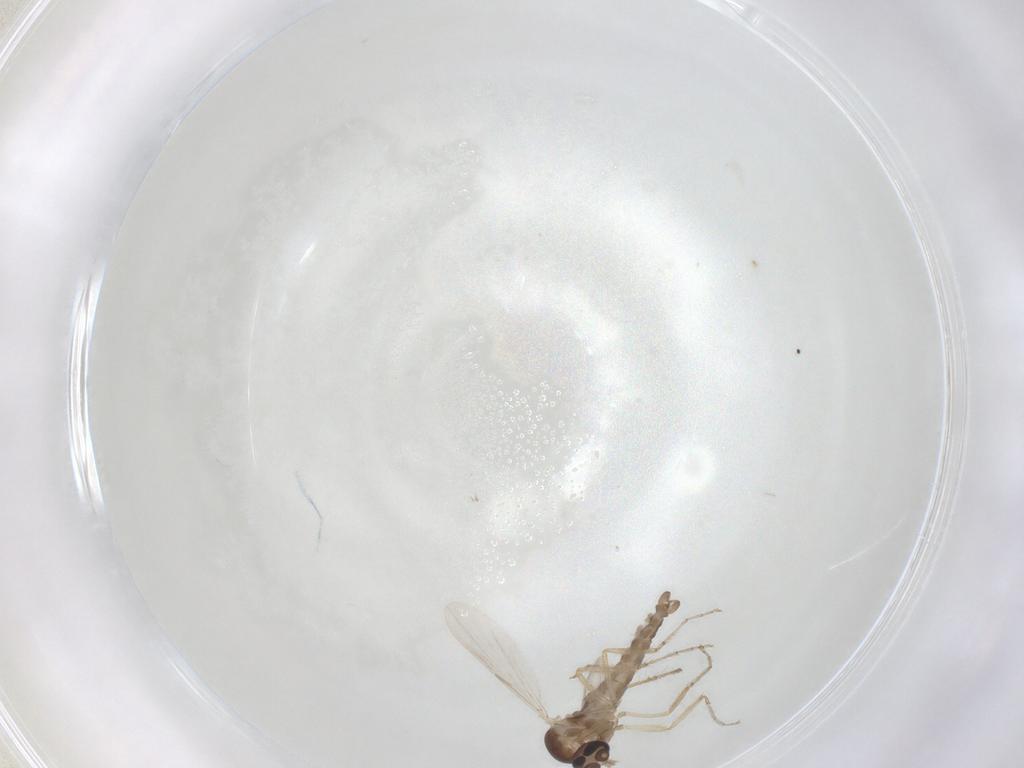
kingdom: Animalia
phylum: Arthropoda
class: Insecta
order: Diptera
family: Ceratopogonidae
